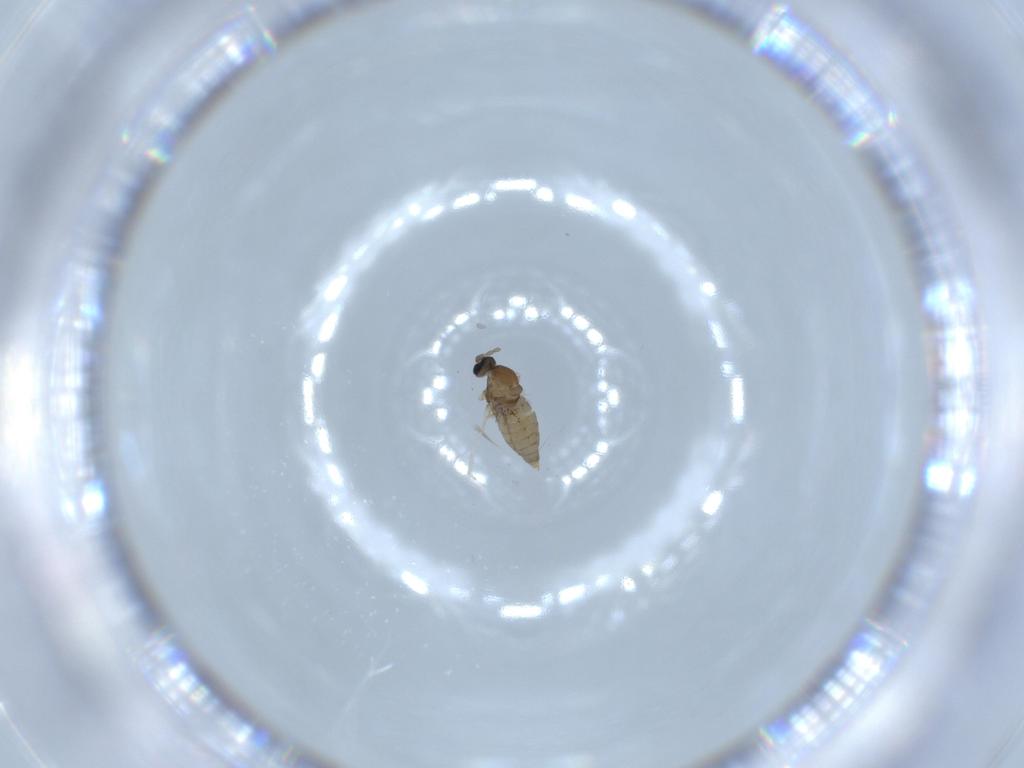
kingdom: Animalia
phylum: Arthropoda
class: Insecta
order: Diptera
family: Cecidomyiidae
